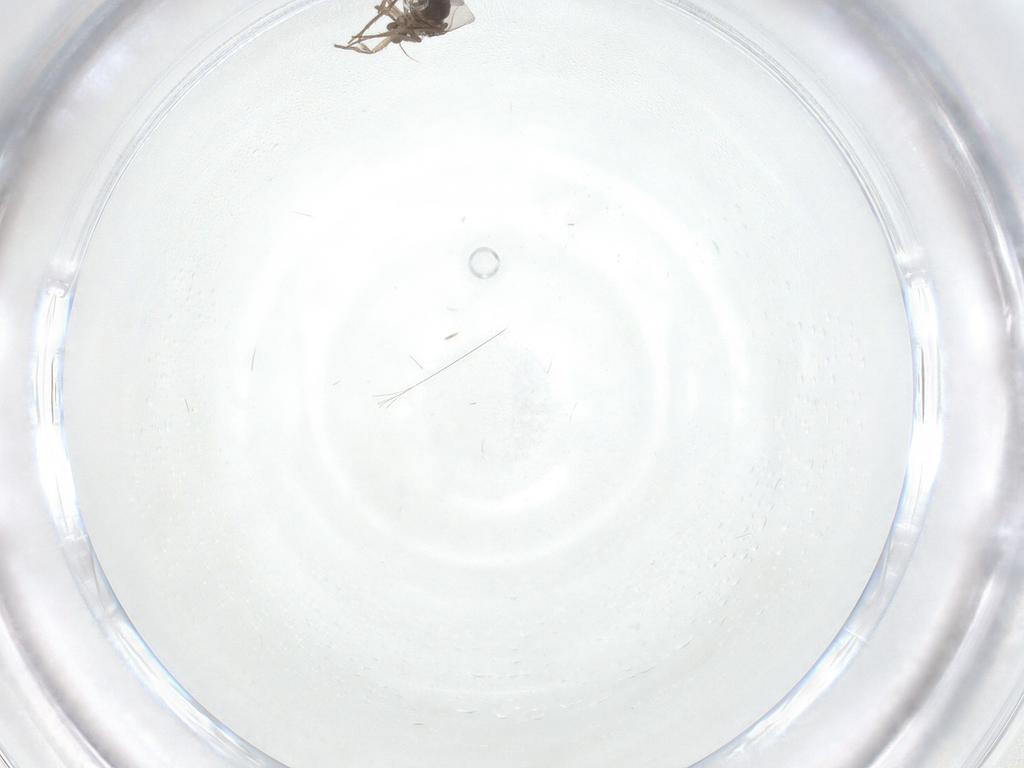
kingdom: Animalia
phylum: Arthropoda
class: Insecta
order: Diptera
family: Phoridae
